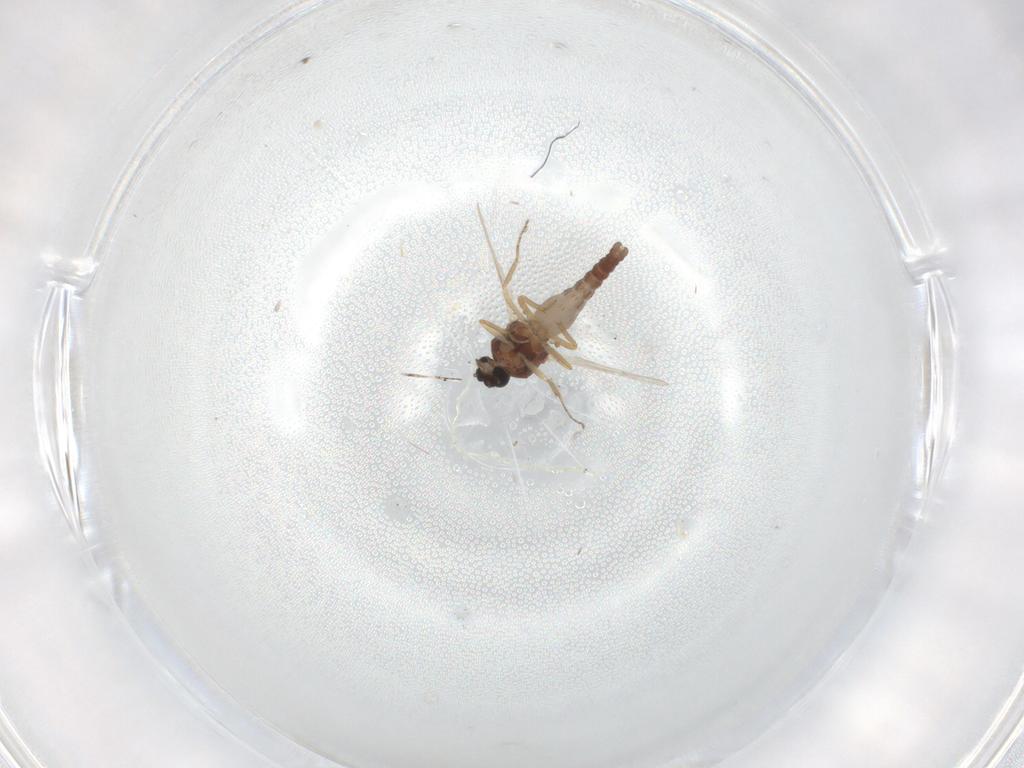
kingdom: Animalia
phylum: Arthropoda
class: Insecta
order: Diptera
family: Ceratopogonidae
